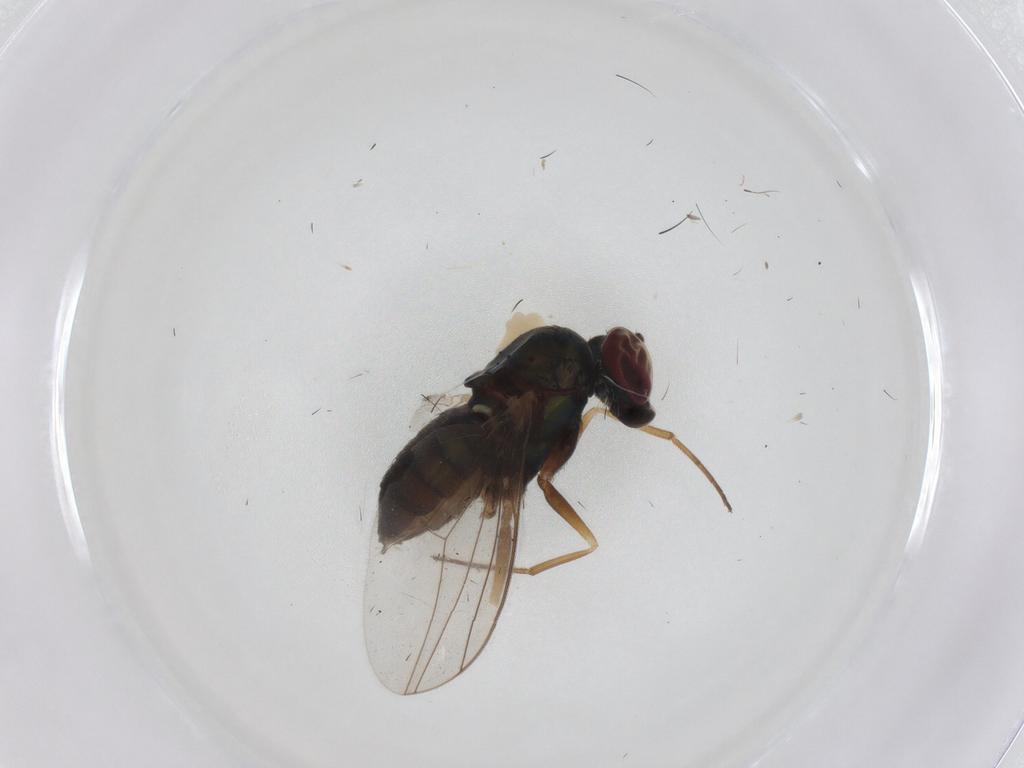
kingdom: Animalia
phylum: Arthropoda
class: Insecta
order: Diptera
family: Dolichopodidae
